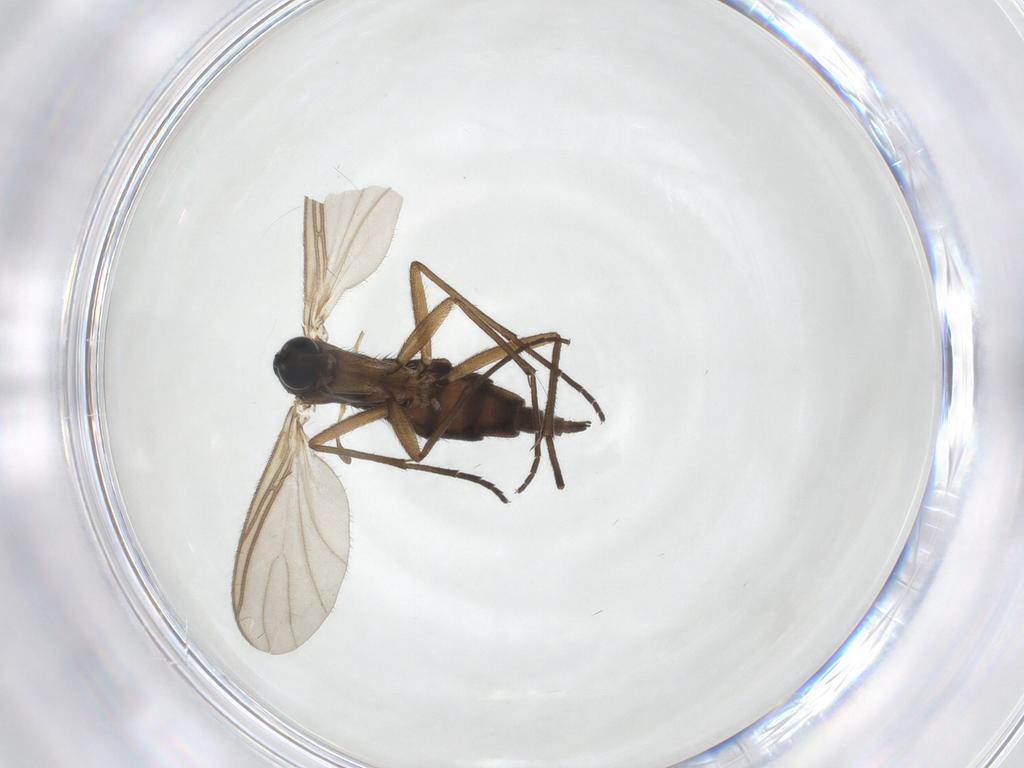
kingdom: Animalia
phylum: Arthropoda
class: Insecta
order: Diptera
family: Sciaridae
